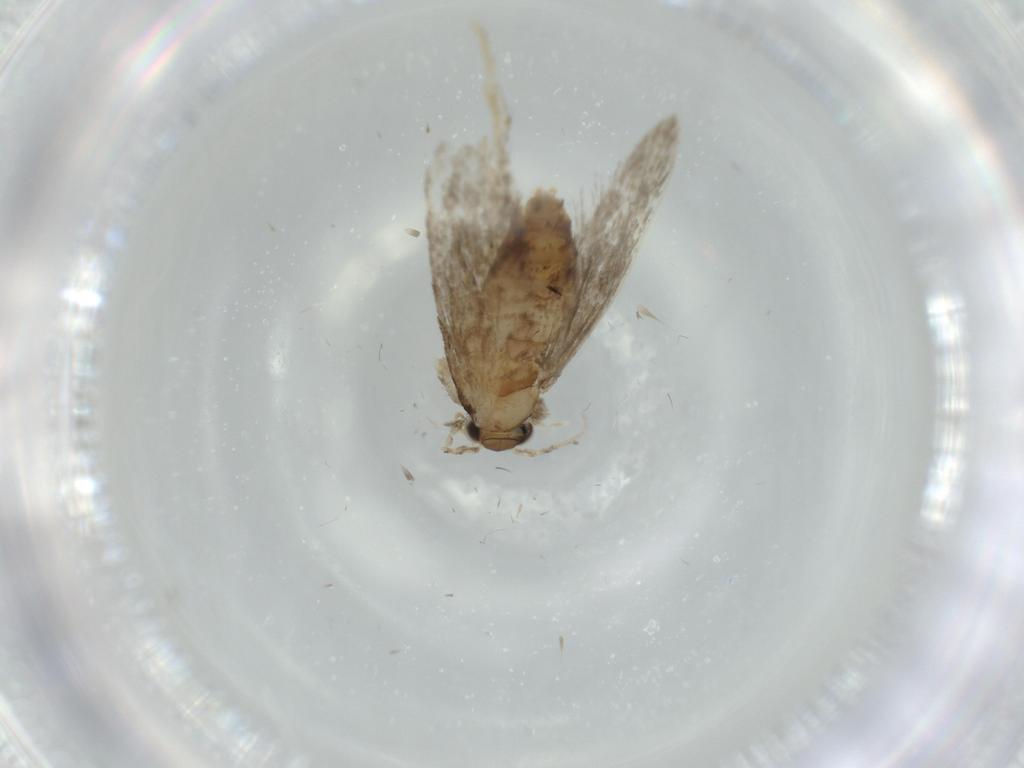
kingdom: Animalia
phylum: Arthropoda
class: Insecta
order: Lepidoptera
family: Tineidae
